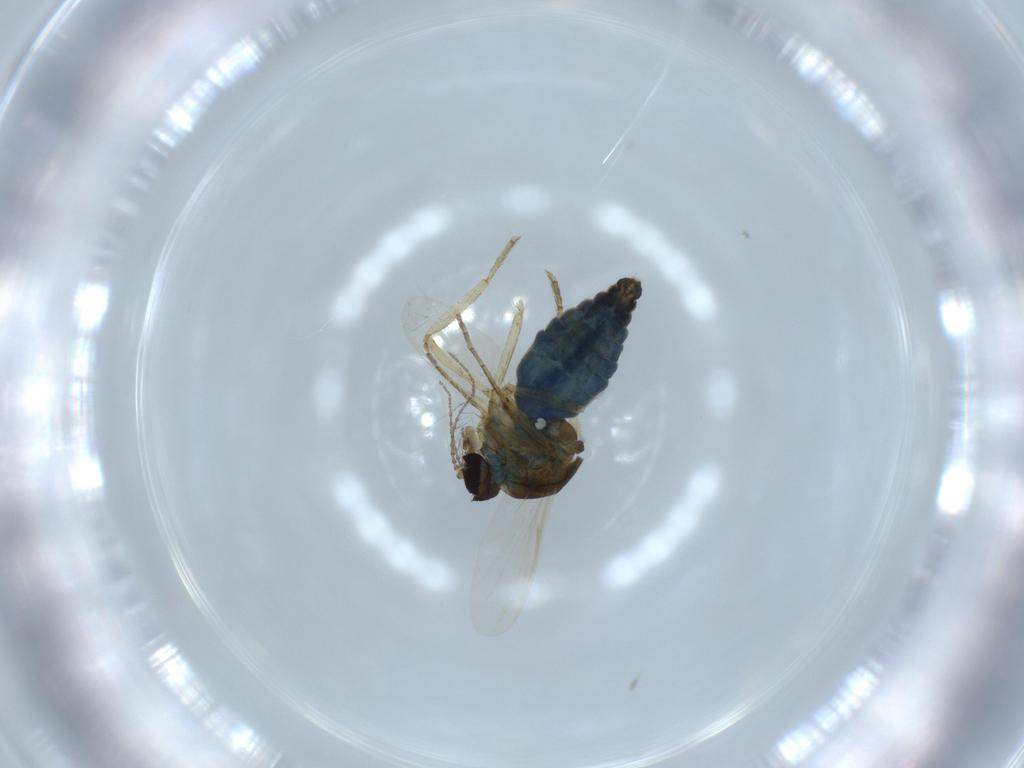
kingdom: Animalia
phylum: Arthropoda
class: Insecta
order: Diptera
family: Ceratopogonidae
